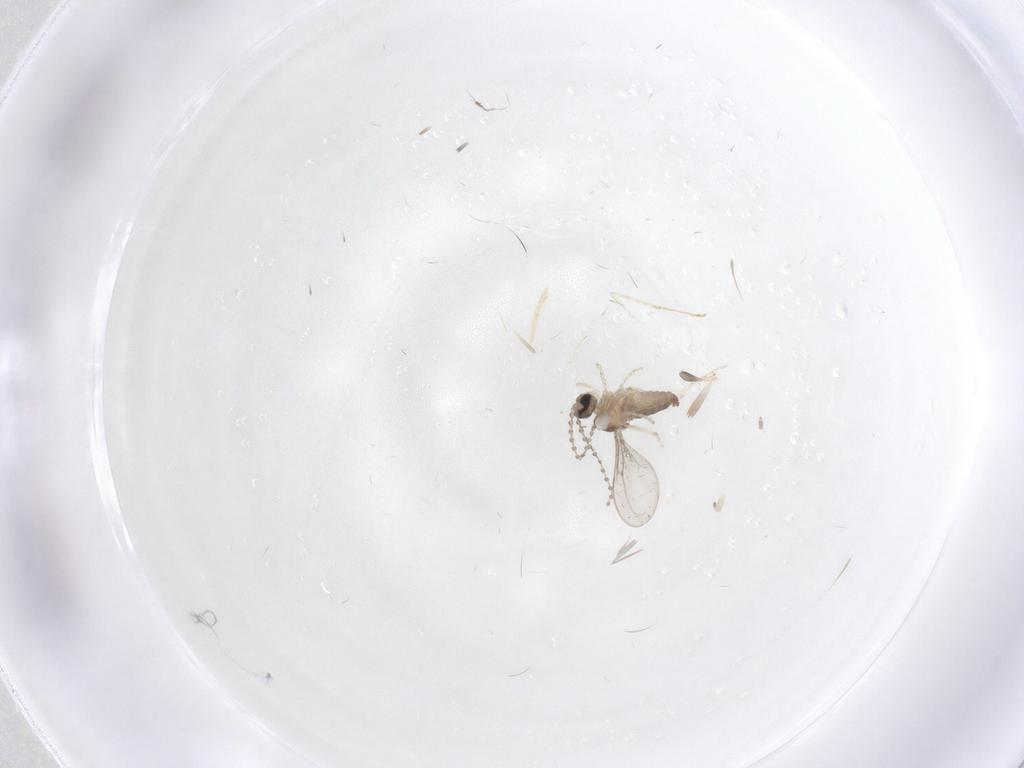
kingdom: Animalia
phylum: Arthropoda
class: Insecta
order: Diptera
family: Cecidomyiidae
